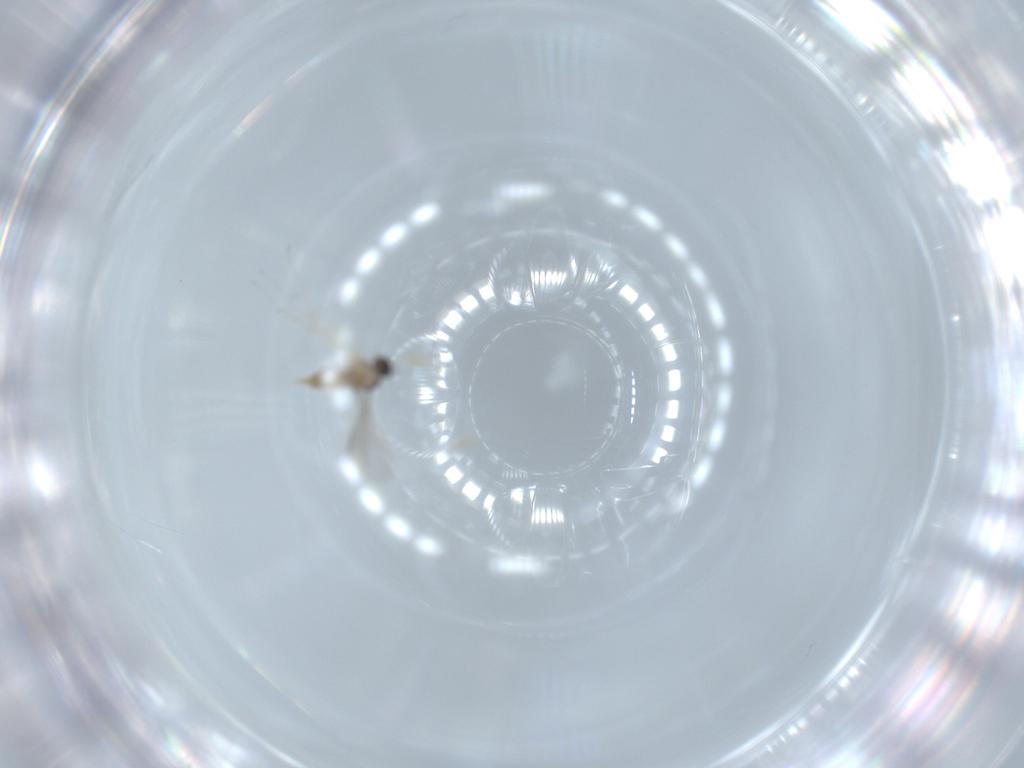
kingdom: Animalia
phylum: Arthropoda
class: Insecta
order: Diptera
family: Cecidomyiidae
